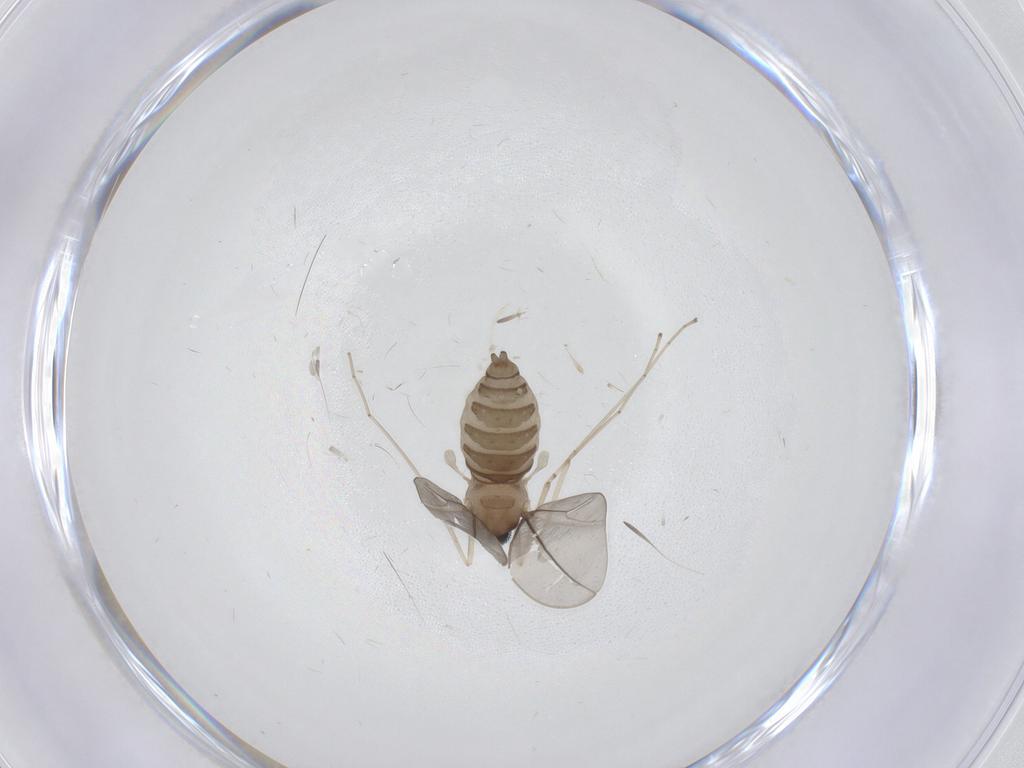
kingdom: Animalia
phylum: Arthropoda
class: Insecta
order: Diptera
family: Cecidomyiidae
